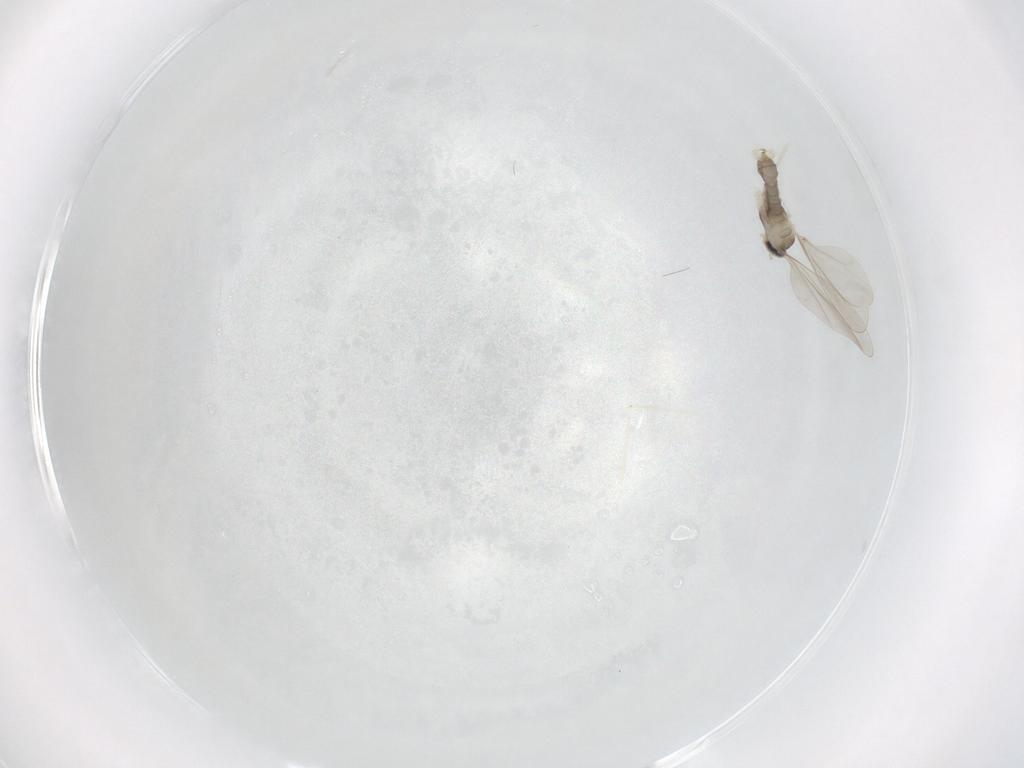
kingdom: Animalia
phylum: Arthropoda
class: Insecta
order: Diptera
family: Cecidomyiidae
